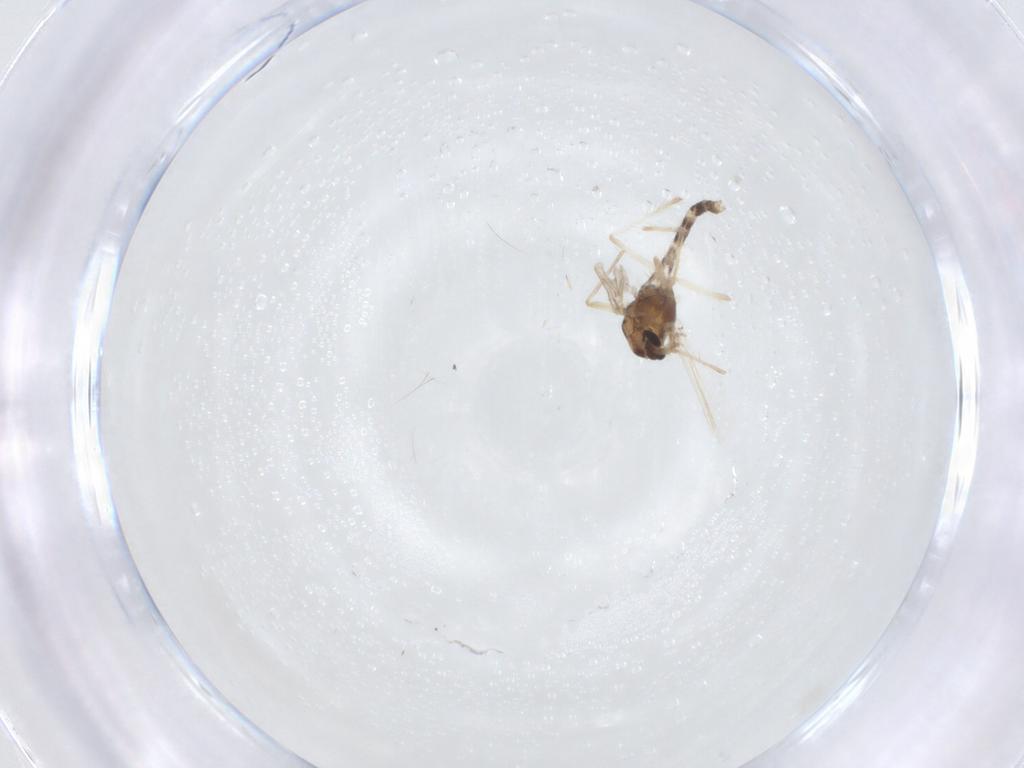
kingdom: Animalia
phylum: Arthropoda
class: Insecta
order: Diptera
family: Chironomidae
